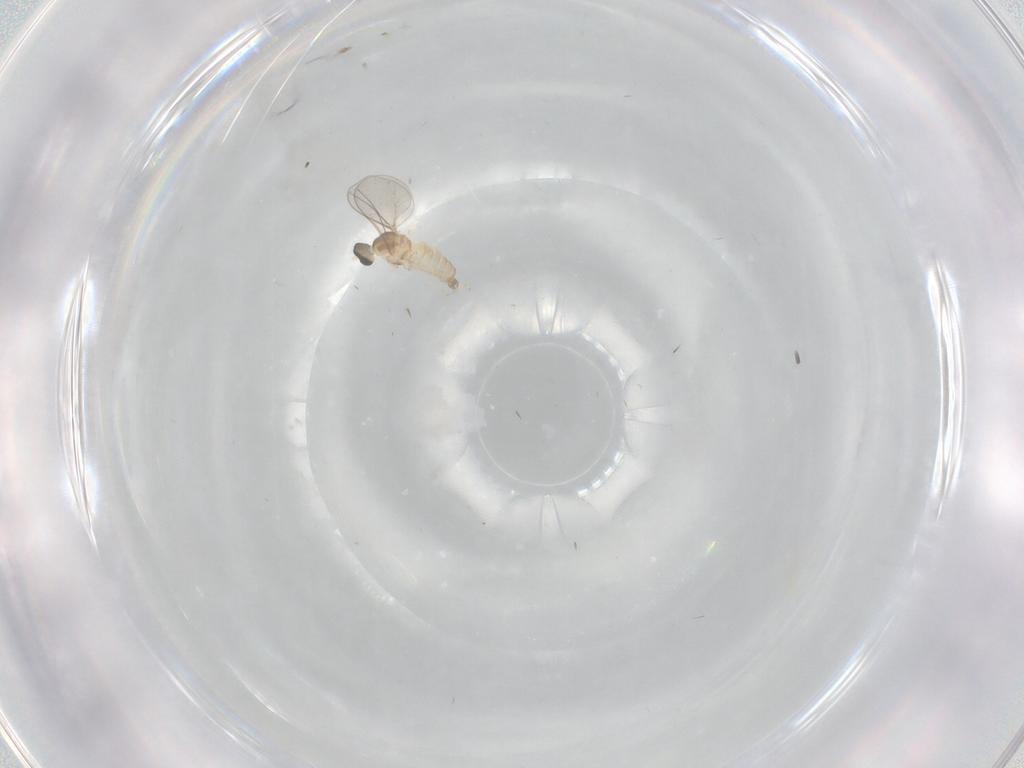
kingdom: Animalia
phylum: Arthropoda
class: Insecta
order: Diptera
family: Cecidomyiidae
